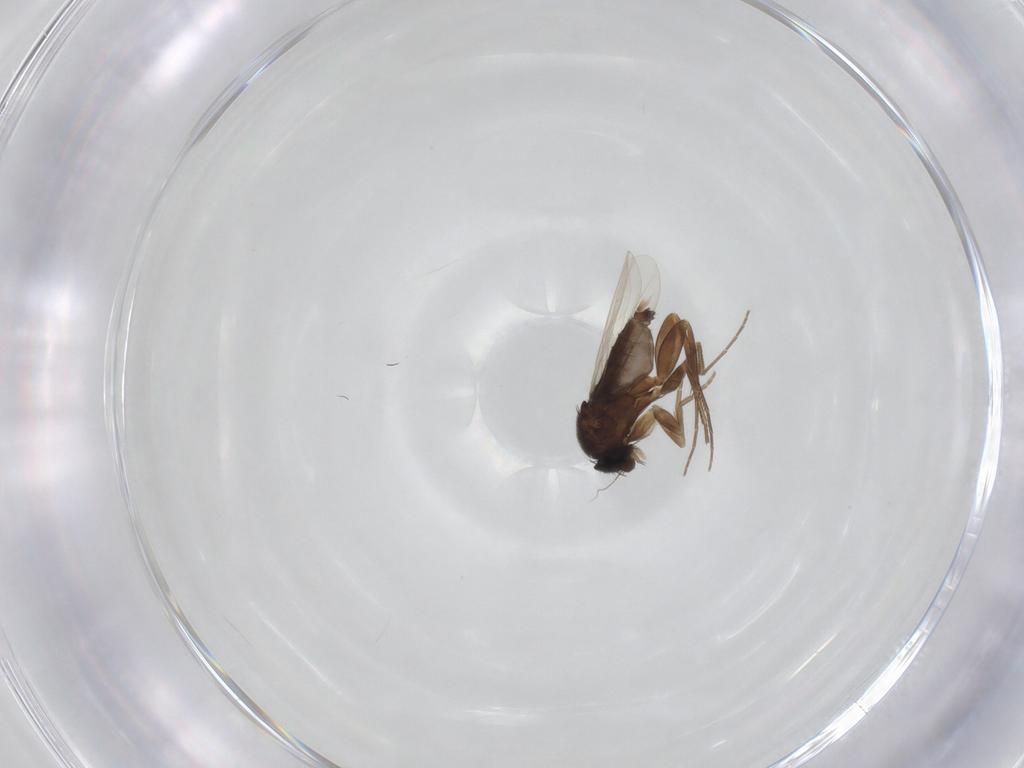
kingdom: Animalia
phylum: Arthropoda
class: Insecta
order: Diptera
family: Phoridae
